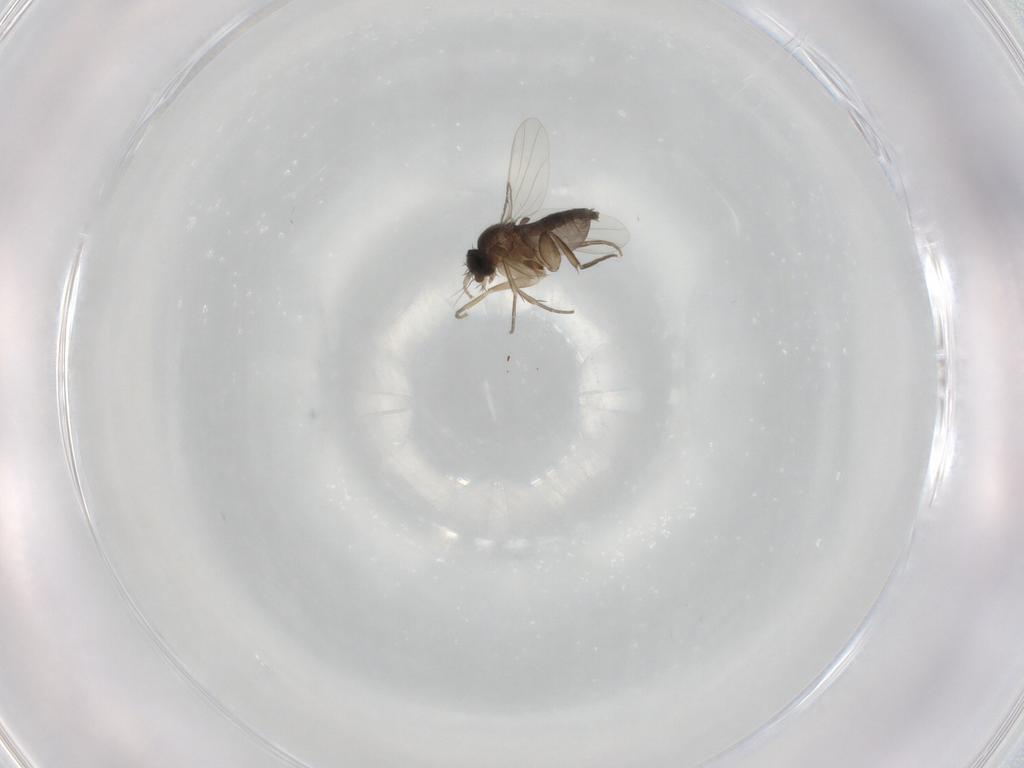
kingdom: Animalia
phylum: Arthropoda
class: Insecta
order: Diptera
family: Phoridae
